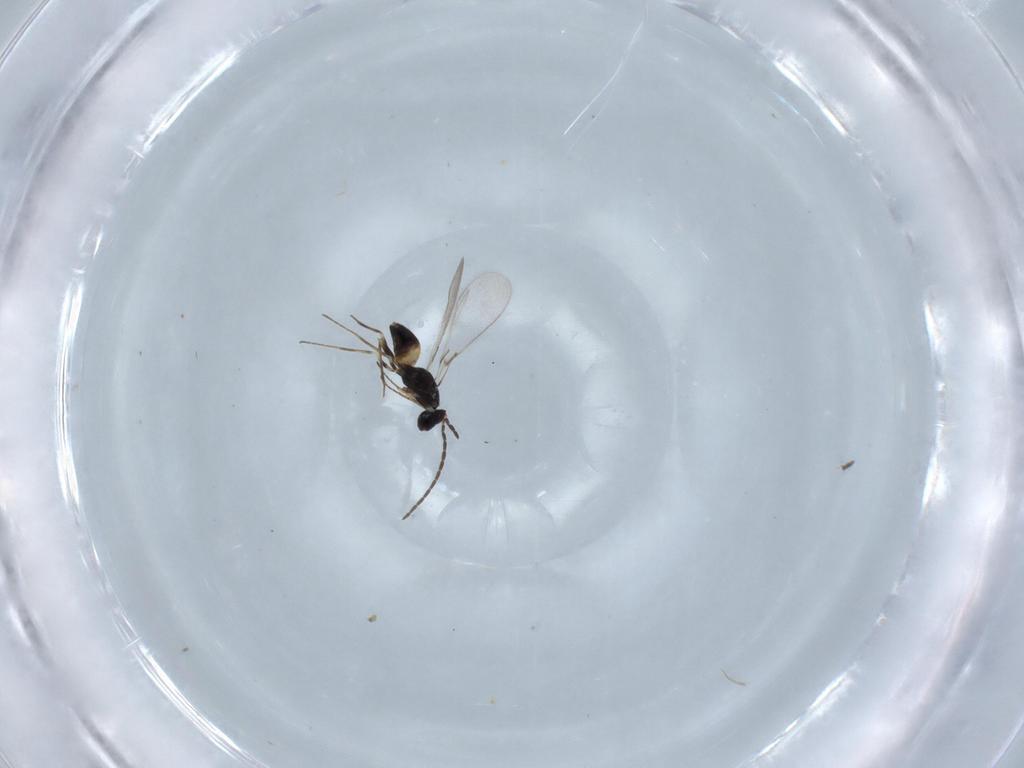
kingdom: Animalia
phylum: Arthropoda
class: Insecta
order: Hymenoptera
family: Mymaridae
